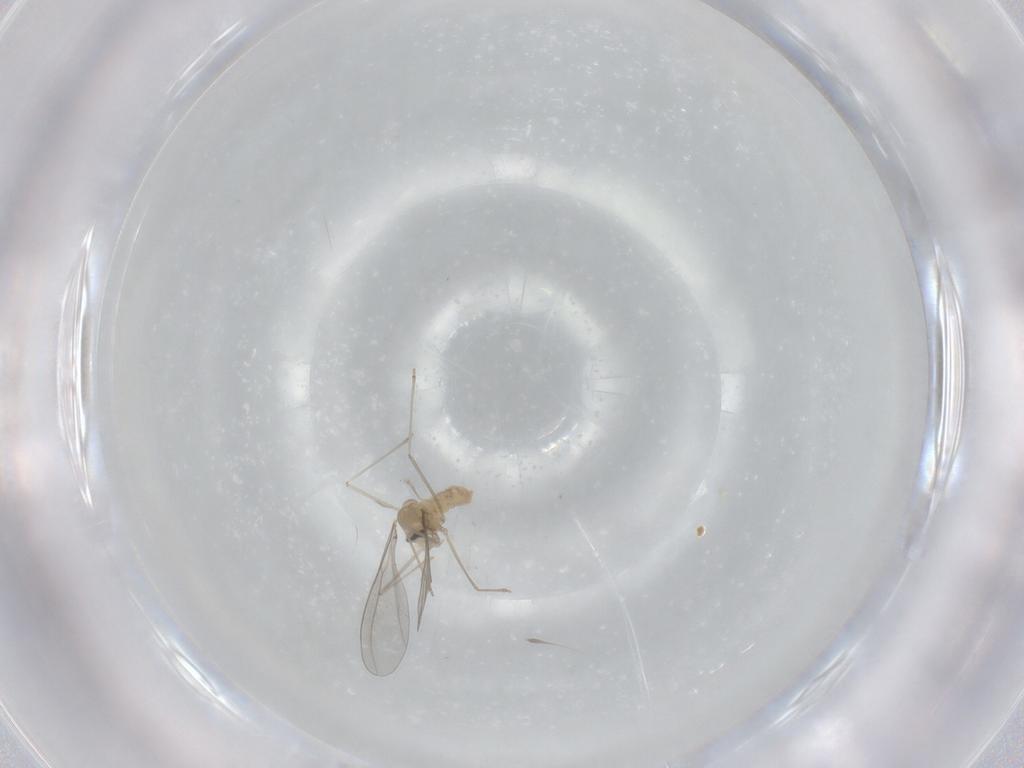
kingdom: Animalia
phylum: Arthropoda
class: Insecta
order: Diptera
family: Cecidomyiidae
